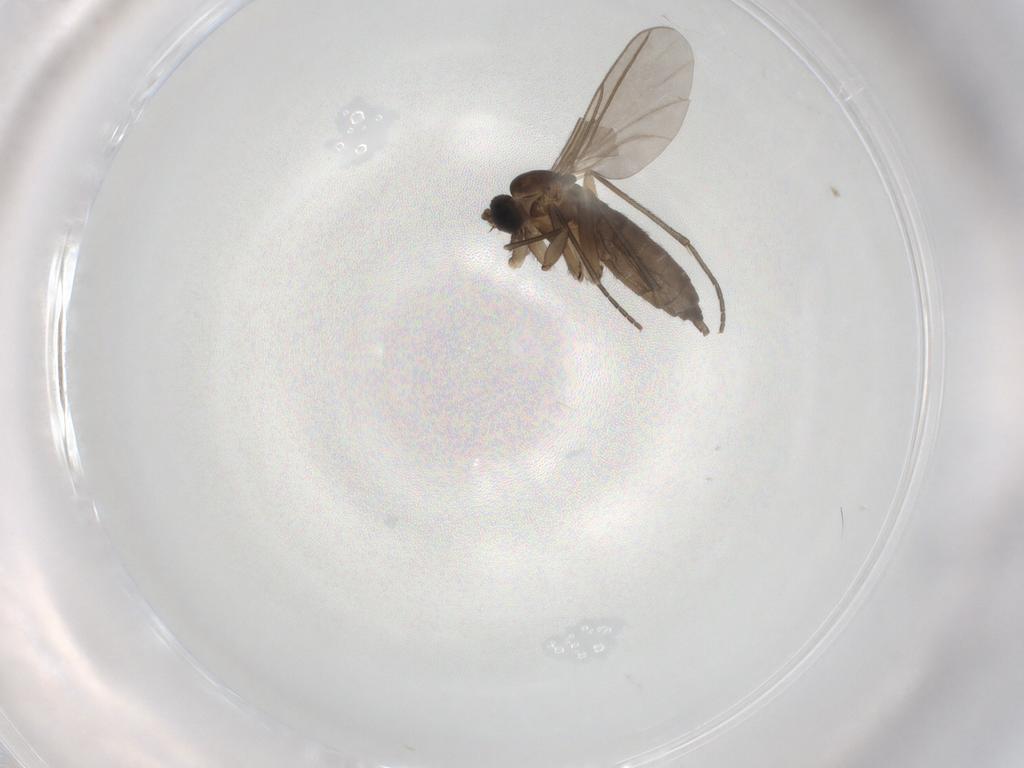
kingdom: Animalia
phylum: Arthropoda
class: Insecta
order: Diptera
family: Sciaridae
